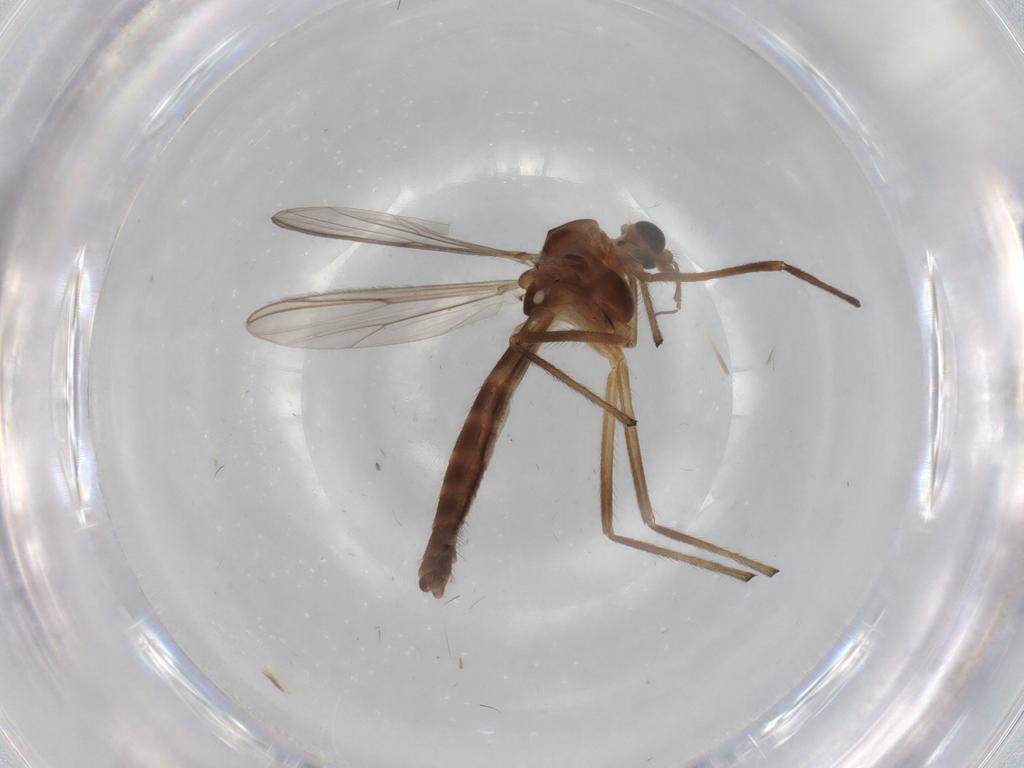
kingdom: Animalia
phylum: Arthropoda
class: Insecta
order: Diptera
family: Chironomidae
